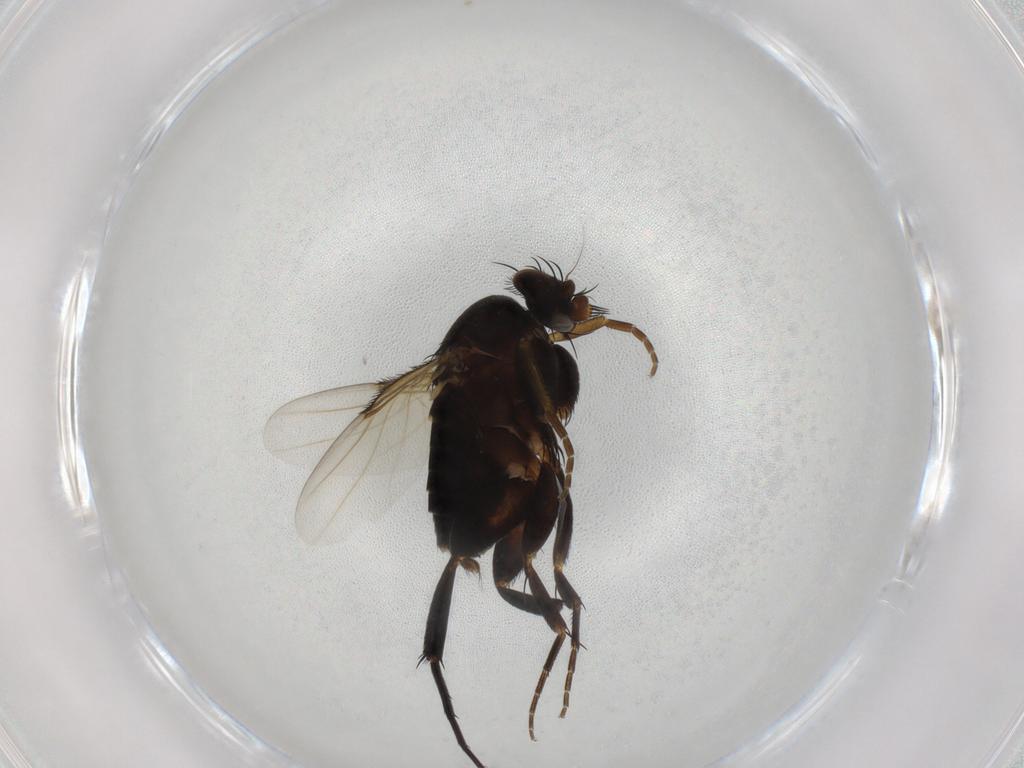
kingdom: Animalia
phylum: Arthropoda
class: Insecta
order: Diptera
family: Phoridae
